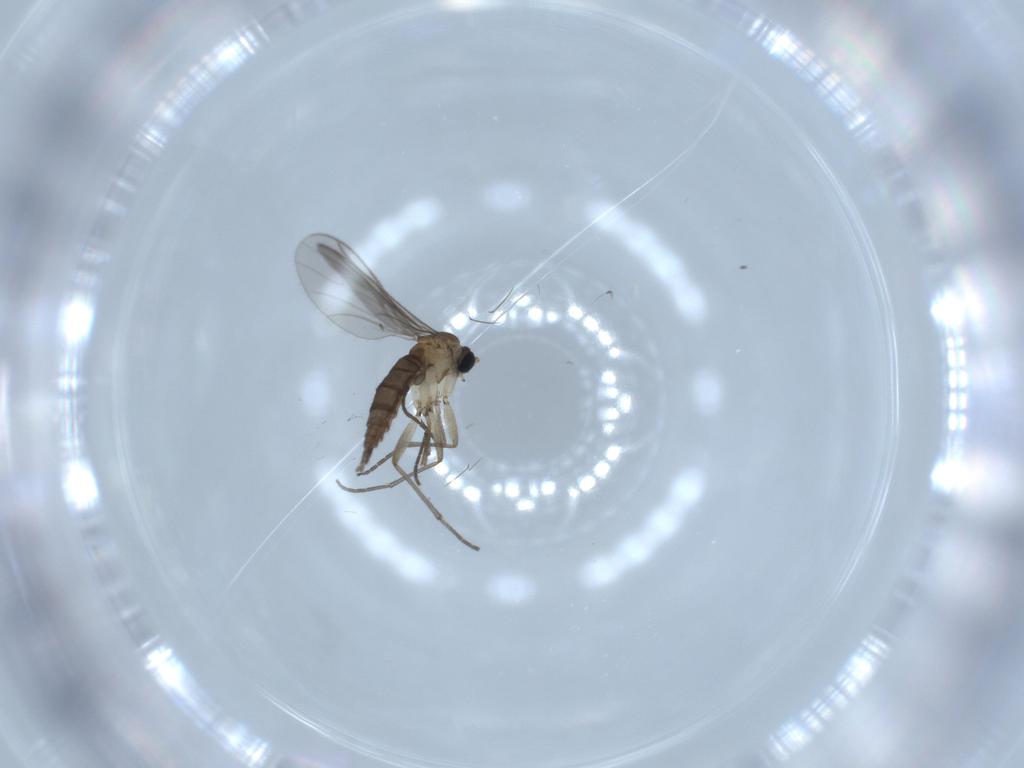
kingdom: Animalia
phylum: Arthropoda
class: Insecta
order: Diptera
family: Sciaridae
